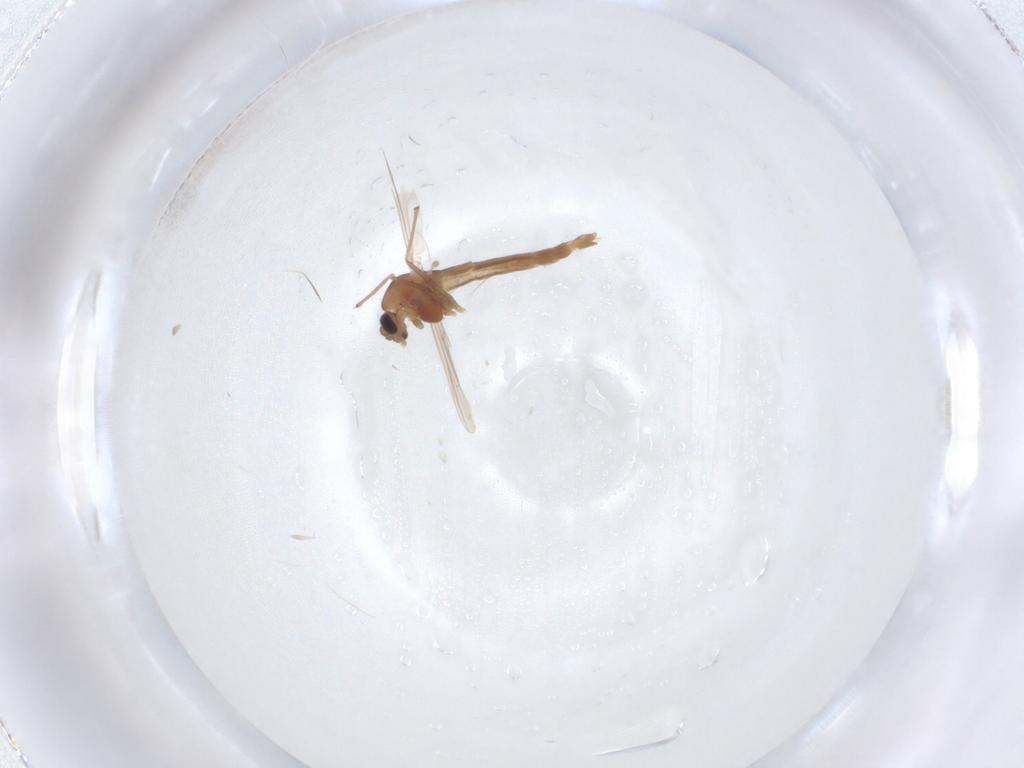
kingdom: Animalia
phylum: Arthropoda
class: Insecta
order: Diptera
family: Chironomidae
